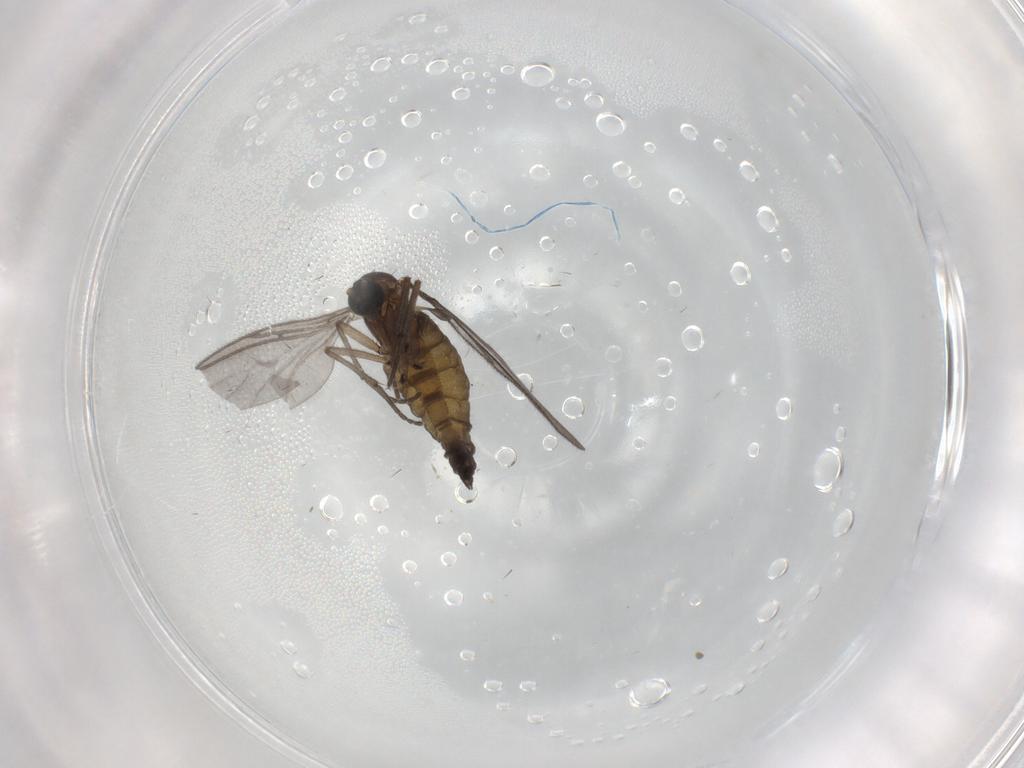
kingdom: Animalia
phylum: Arthropoda
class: Insecta
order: Diptera
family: Sciaridae
